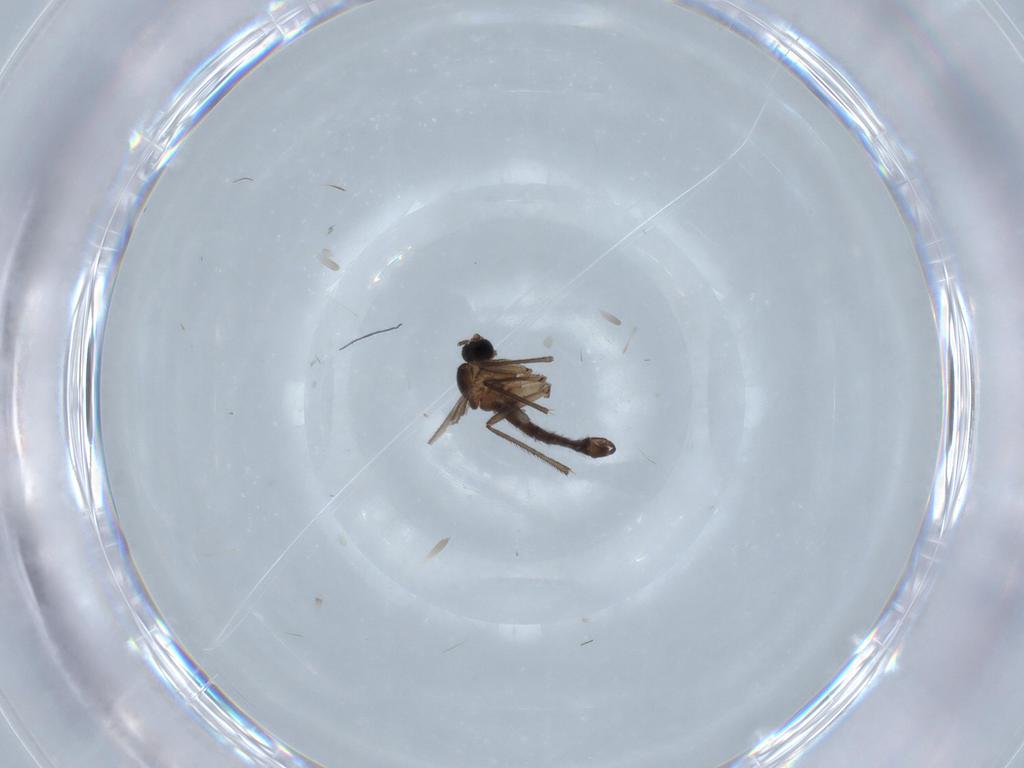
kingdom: Animalia
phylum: Arthropoda
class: Insecta
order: Diptera
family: Sciaridae
